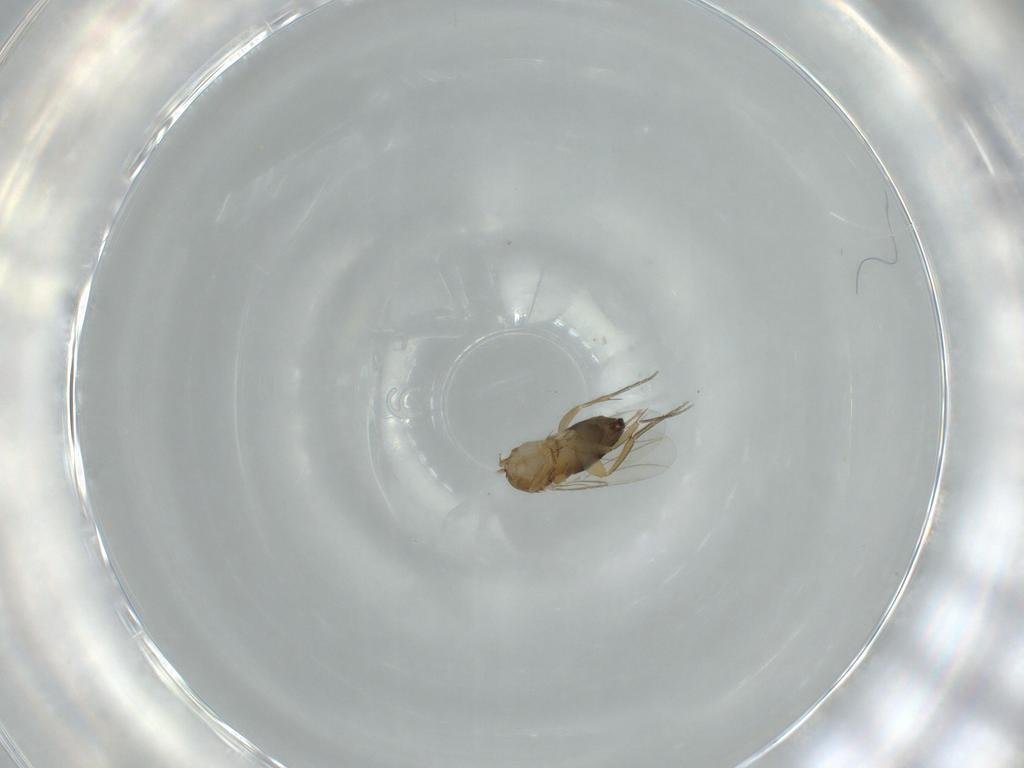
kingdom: Animalia
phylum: Arthropoda
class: Insecta
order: Diptera
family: Phoridae
